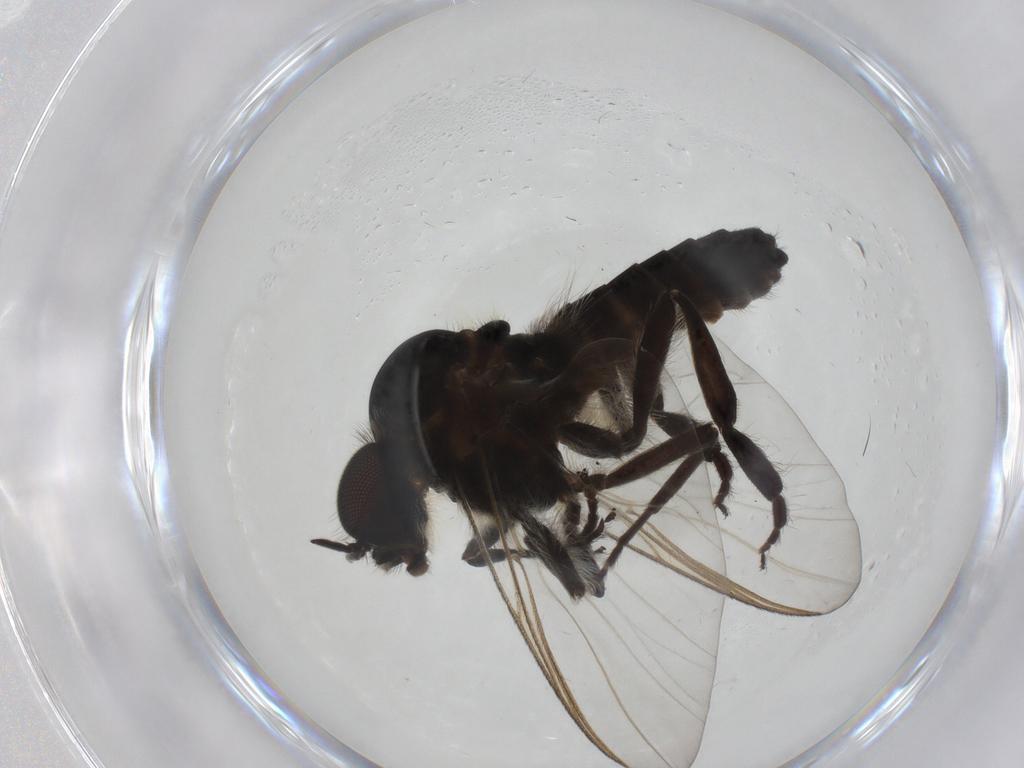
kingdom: Animalia
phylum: Arthropoda
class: Insecta
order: Diptera
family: Simuliidae
